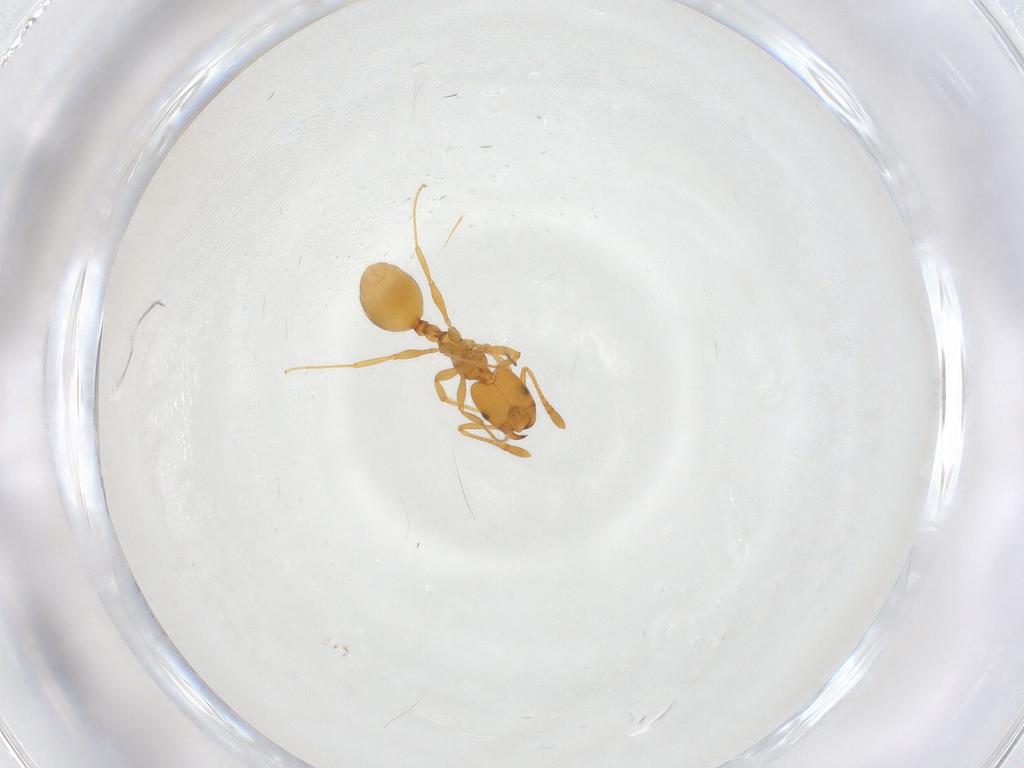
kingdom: Animalia
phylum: Arthropoda
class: Insecta
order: Hymenoptera
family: Formicidae
